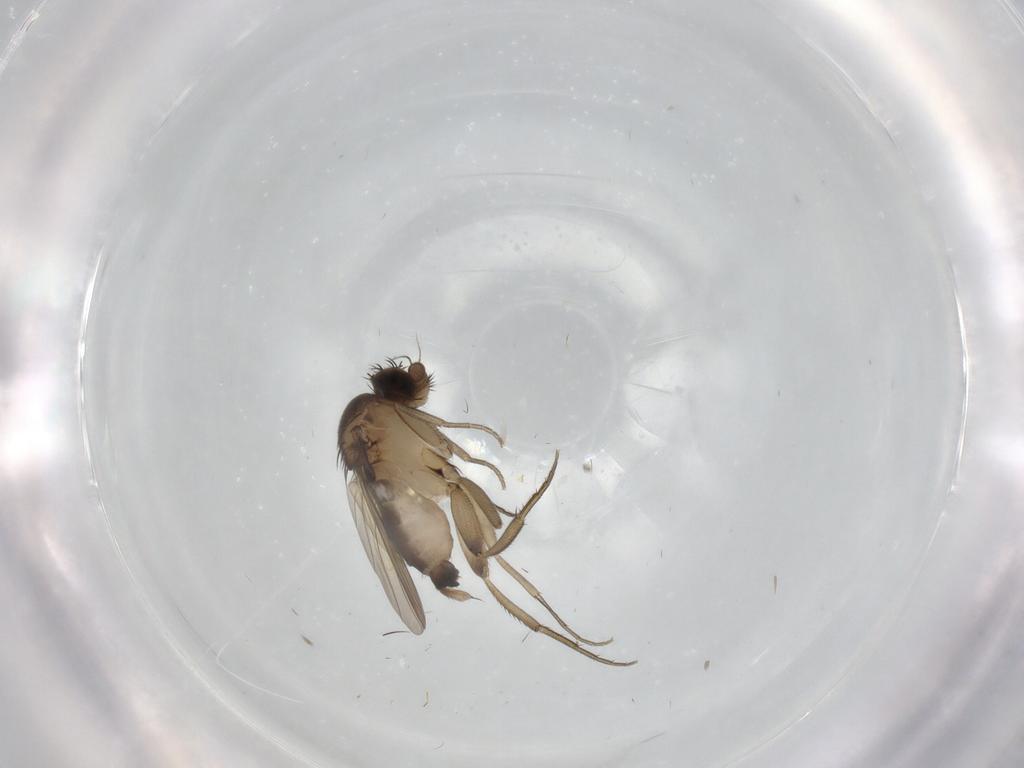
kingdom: Animalia
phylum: Arthropoda
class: Insecta
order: Diptera
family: Phoridae
